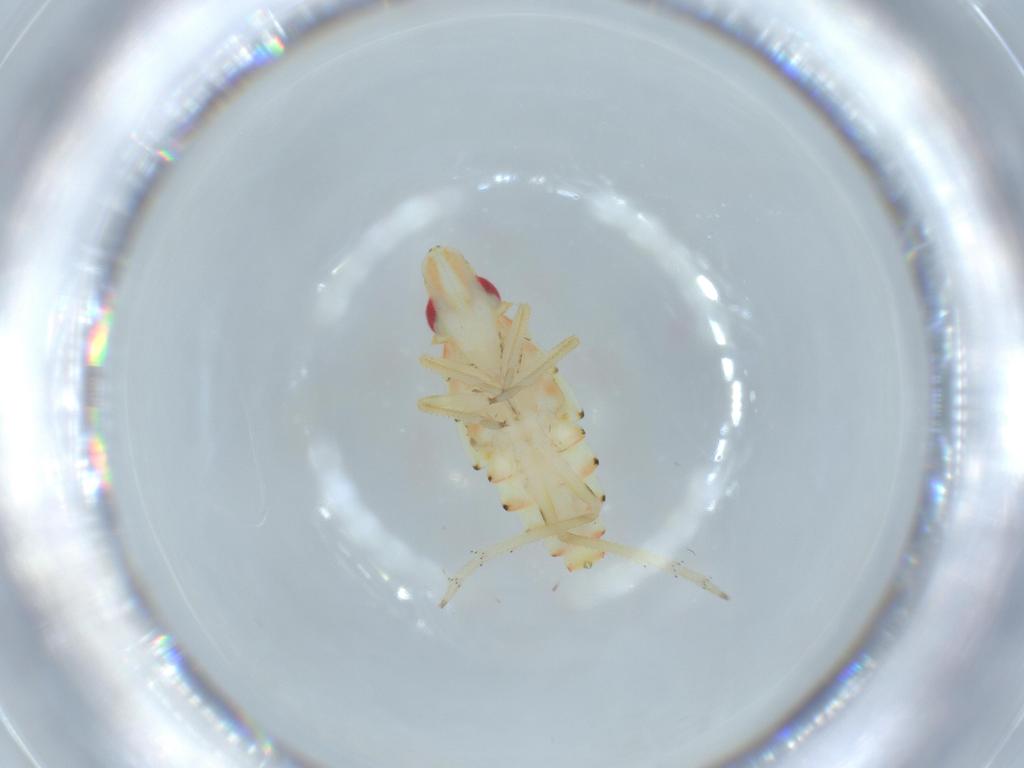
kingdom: Animalia
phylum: Arthropoda
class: Insecta
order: Hemiptera
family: Tropiduchidae
